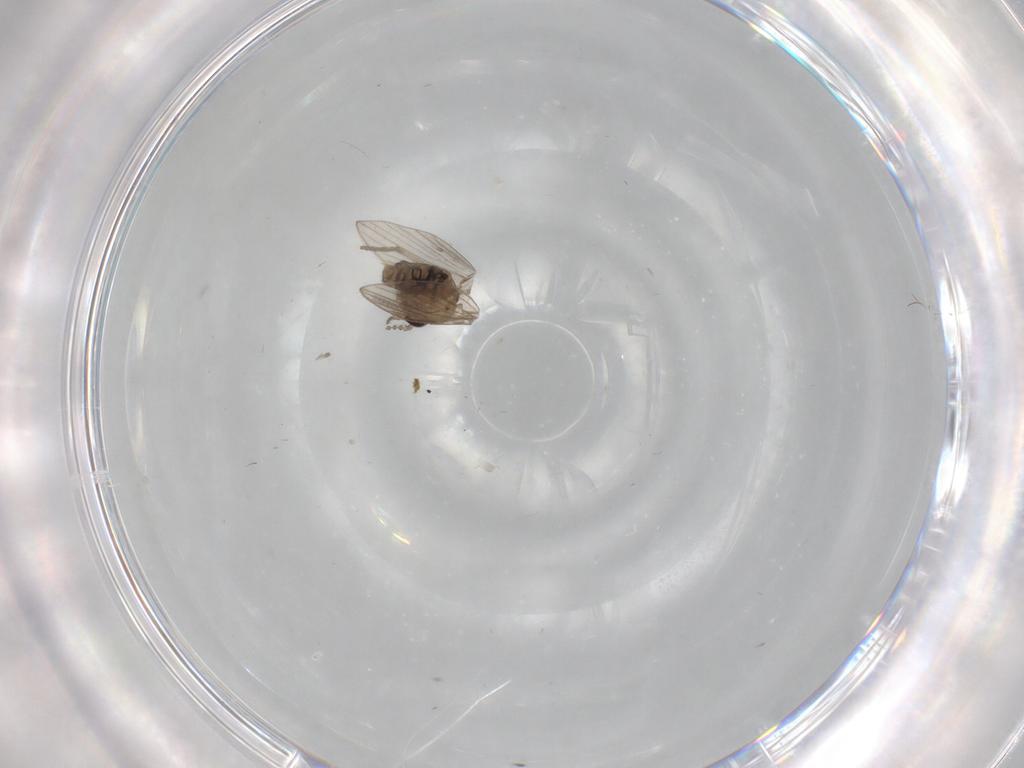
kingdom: Animalia
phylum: Arthropoda
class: Insecta
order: Diptera
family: Psychodidae
